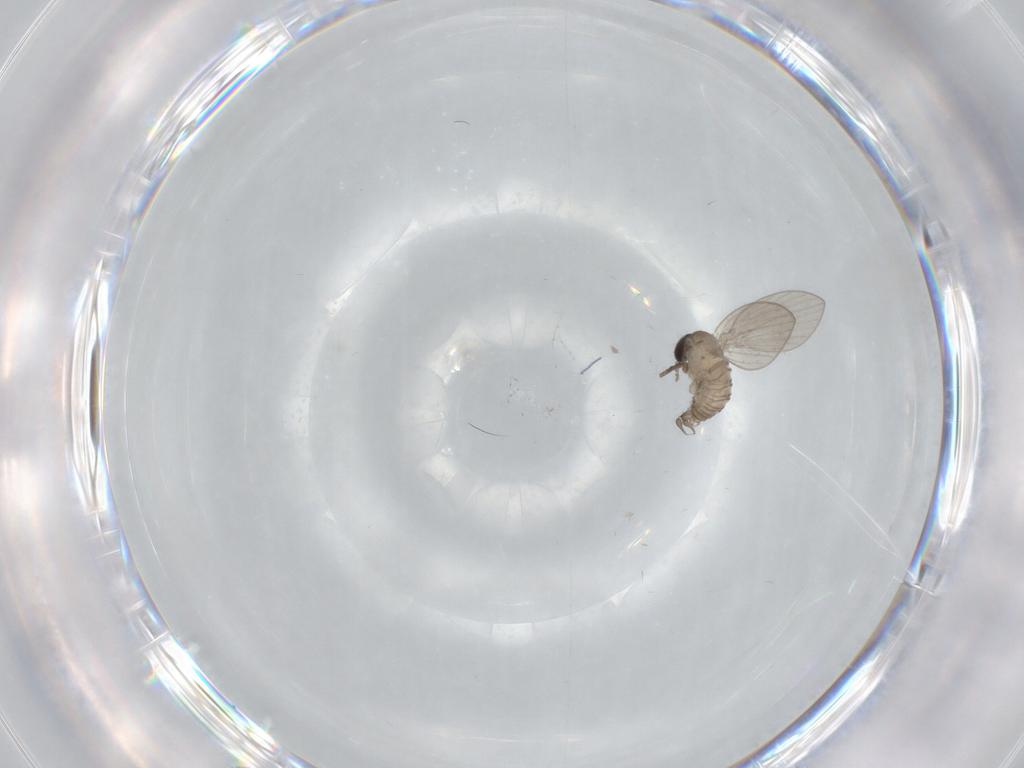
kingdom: Animalia
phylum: Arthropoda
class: Insecta
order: Diptera
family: Psychodidae
